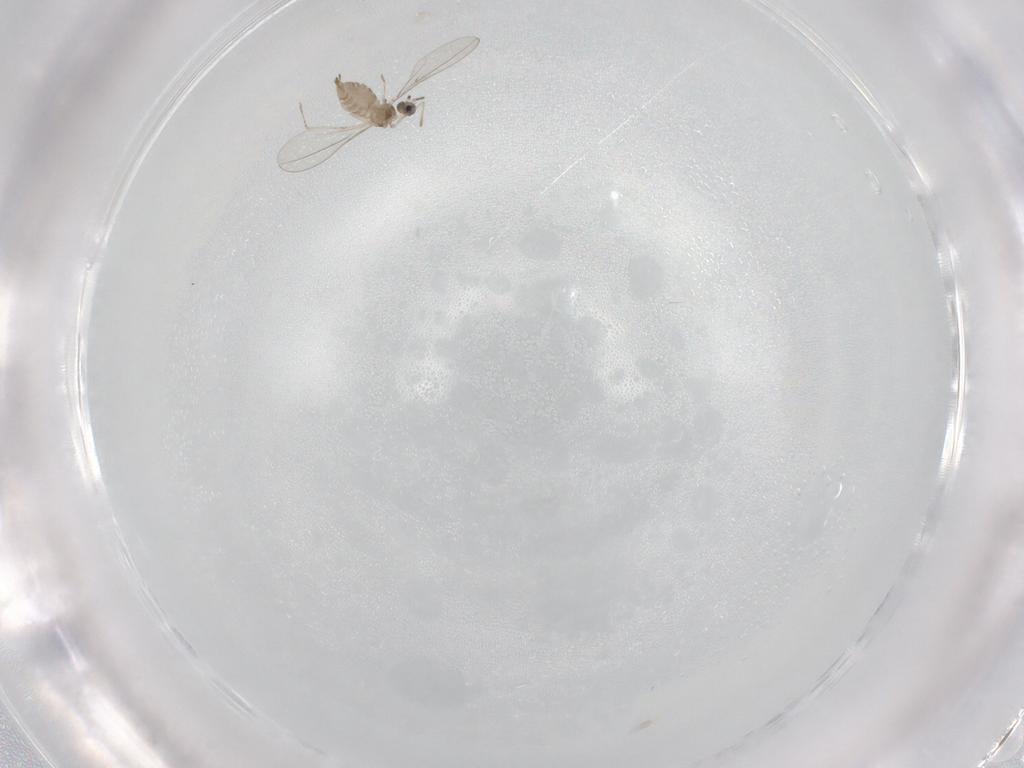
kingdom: Animalia
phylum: Arthropoda
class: Insecta
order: Diptera
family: Cecidomyiidae
